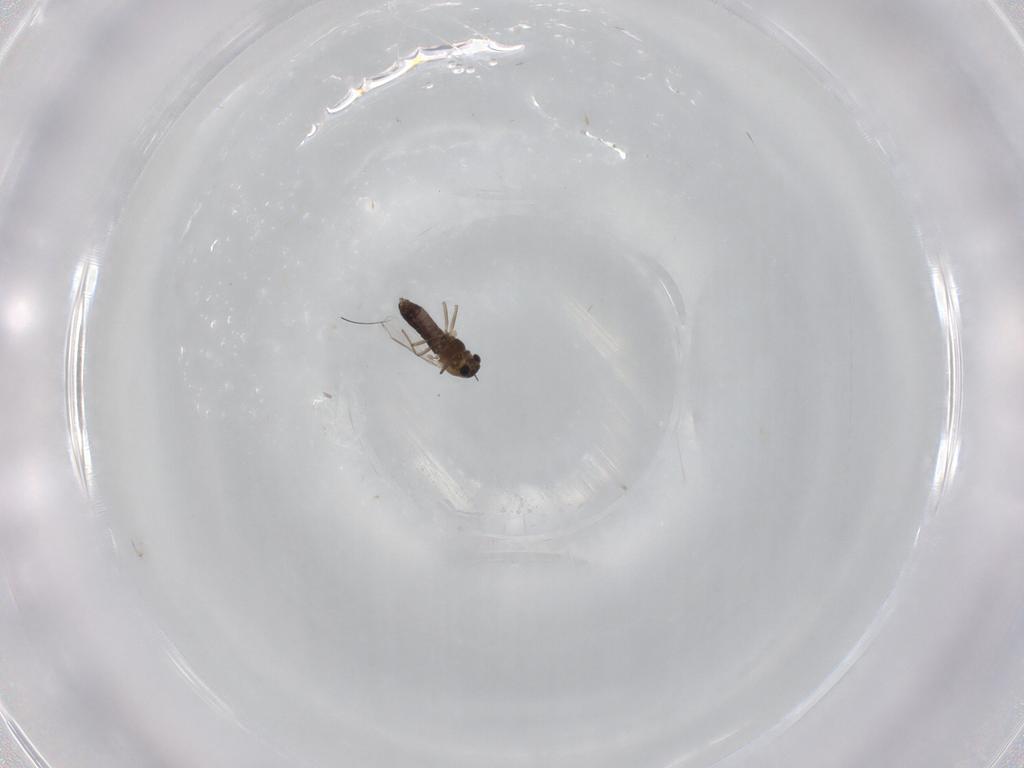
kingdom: Animalia
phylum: Arthropoda
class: Insecta
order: Diptera
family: Chironomidae
